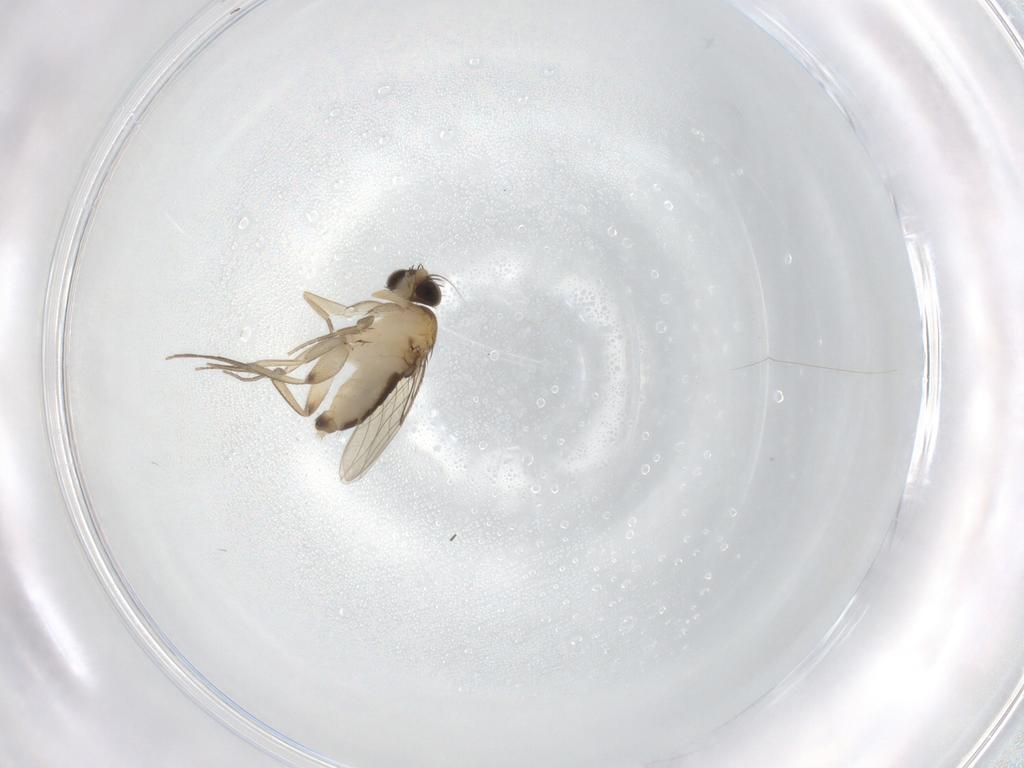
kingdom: Animalia
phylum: Arthropoda
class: Insecta
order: Diptera
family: Phoridae
